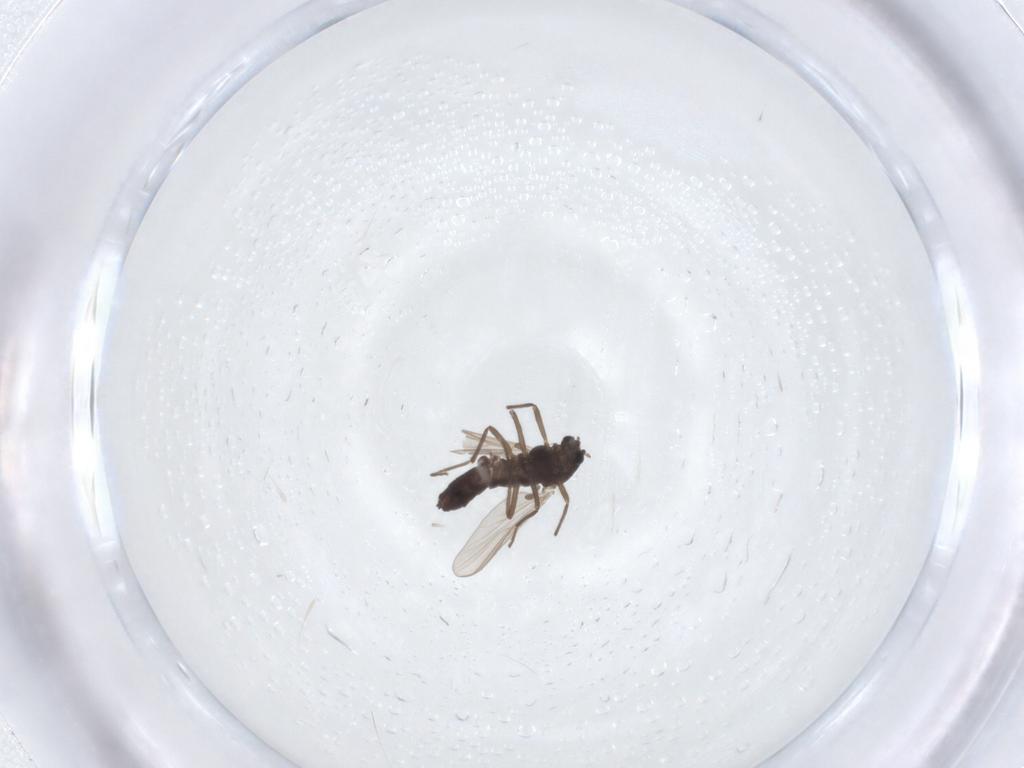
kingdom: Animalia
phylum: Arthropoda
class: Insecta
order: Diptera
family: Chironomidae
